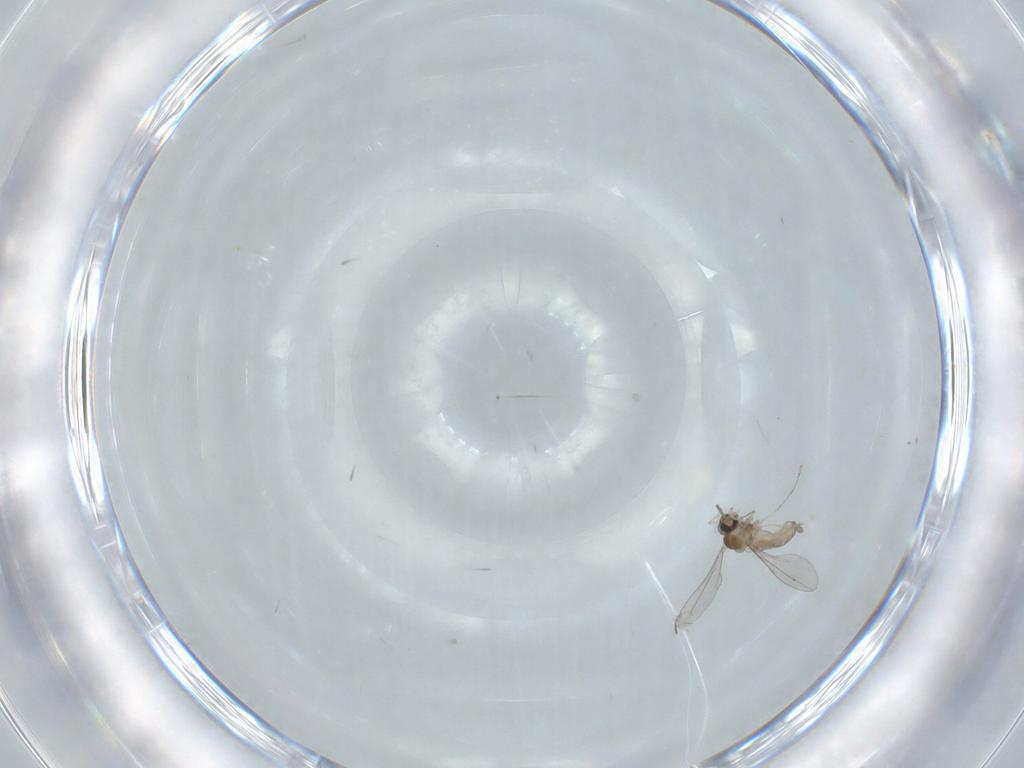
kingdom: Animalia
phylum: Arthropoda
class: Insecta
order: Diptera
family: Cecidomyiidae
